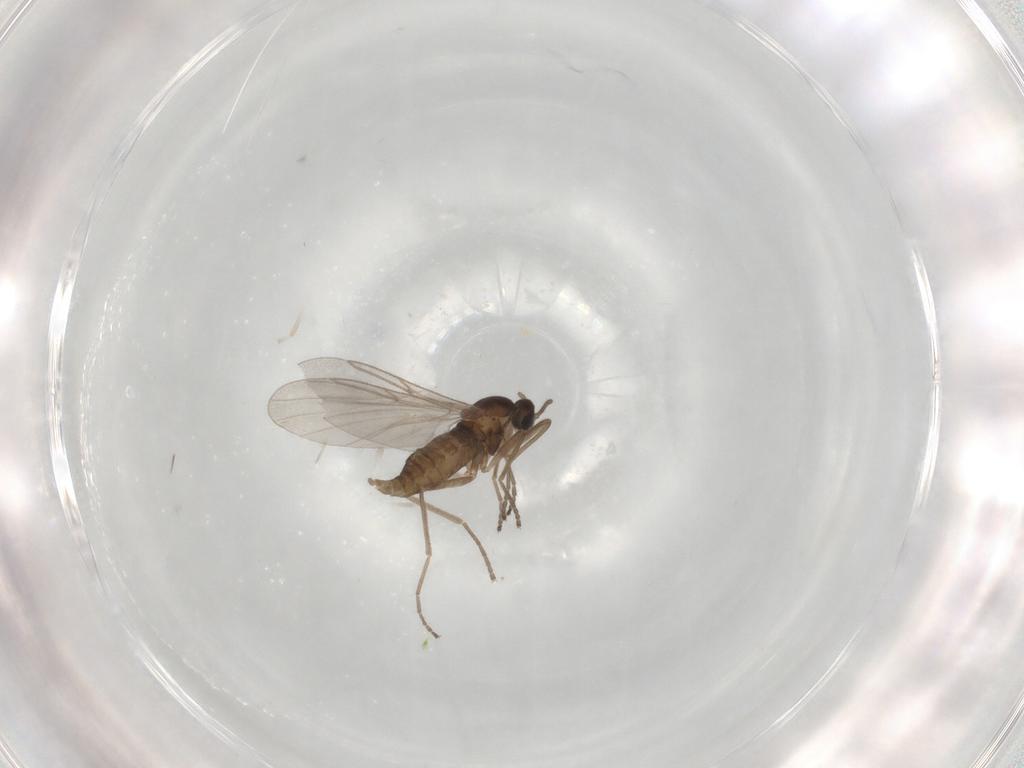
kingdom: Animalia
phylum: Arthropoda
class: Insecta
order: Diptera
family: Cecidomyiidae
